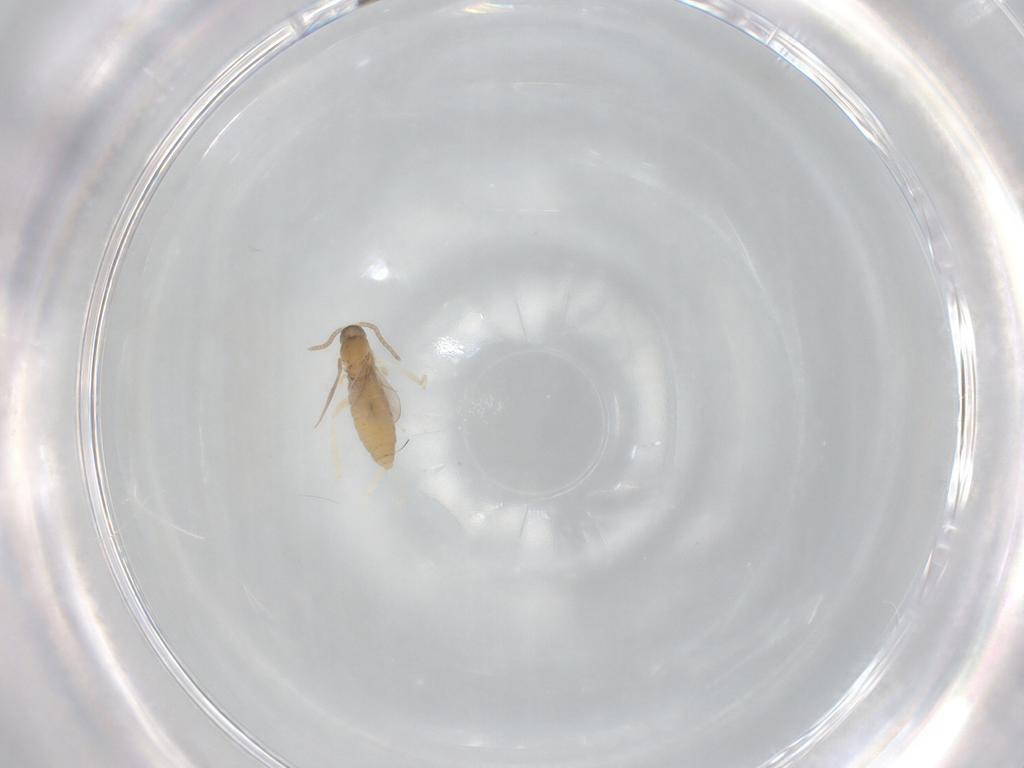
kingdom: Animalia
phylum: Arthropoda
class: Insecta
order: Diptera
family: Cecidomyiidae
